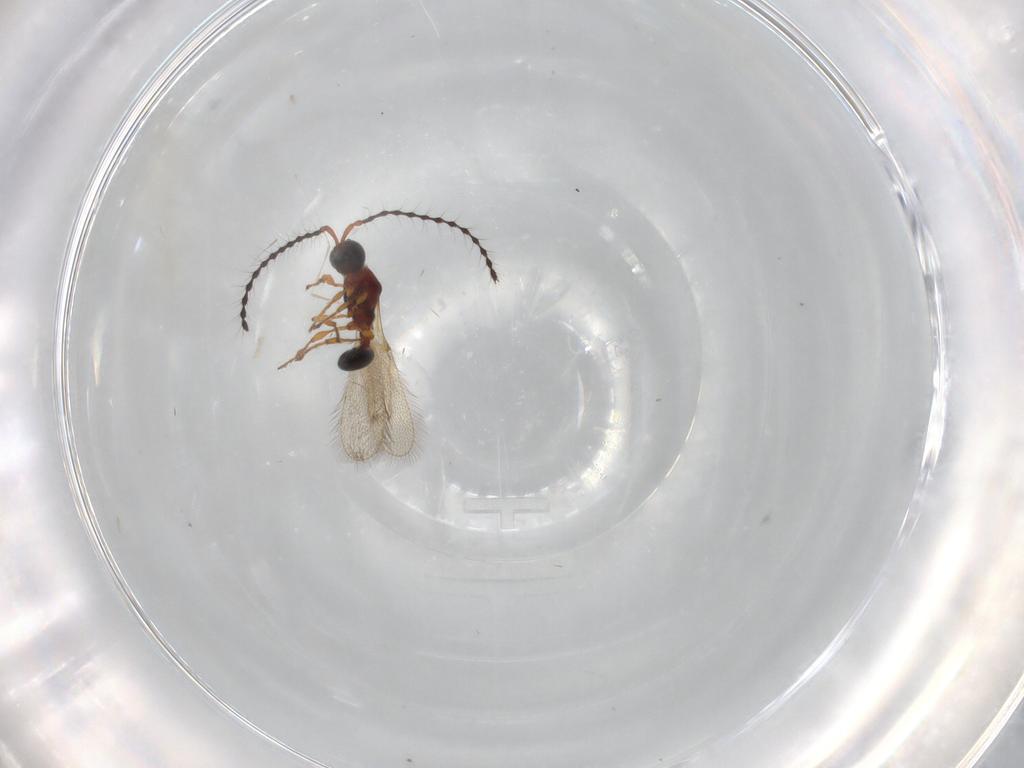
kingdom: Animalia
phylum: Arthropoda
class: Insecta
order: Hymenoptera
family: Diapriidae
